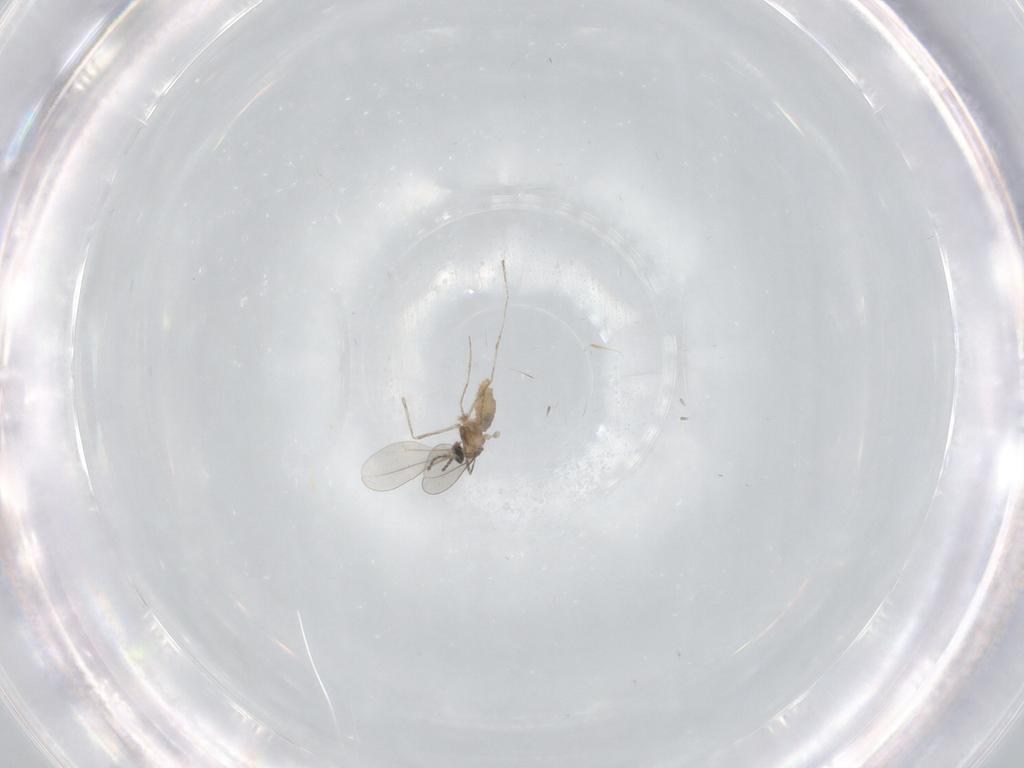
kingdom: Animalia
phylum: Arthropoda
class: Insecta
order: Diptera
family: Cecidomyiidae
